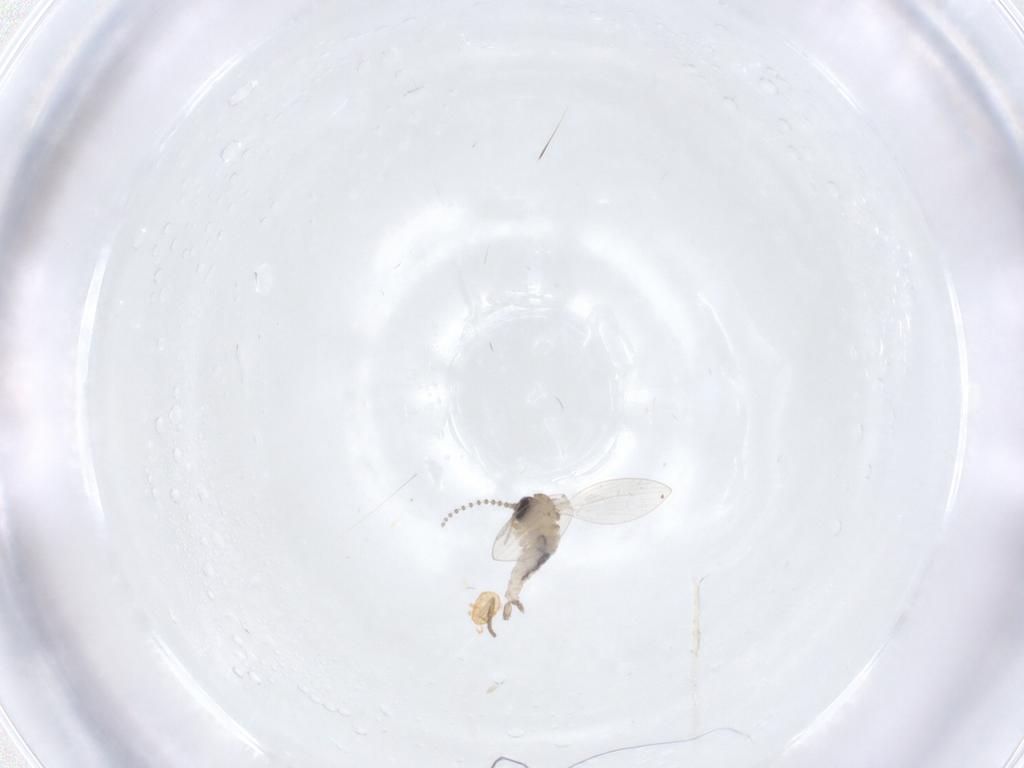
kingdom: Animalia
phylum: Arthropoda
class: Insecta
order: Diptera
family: Psychodidae
